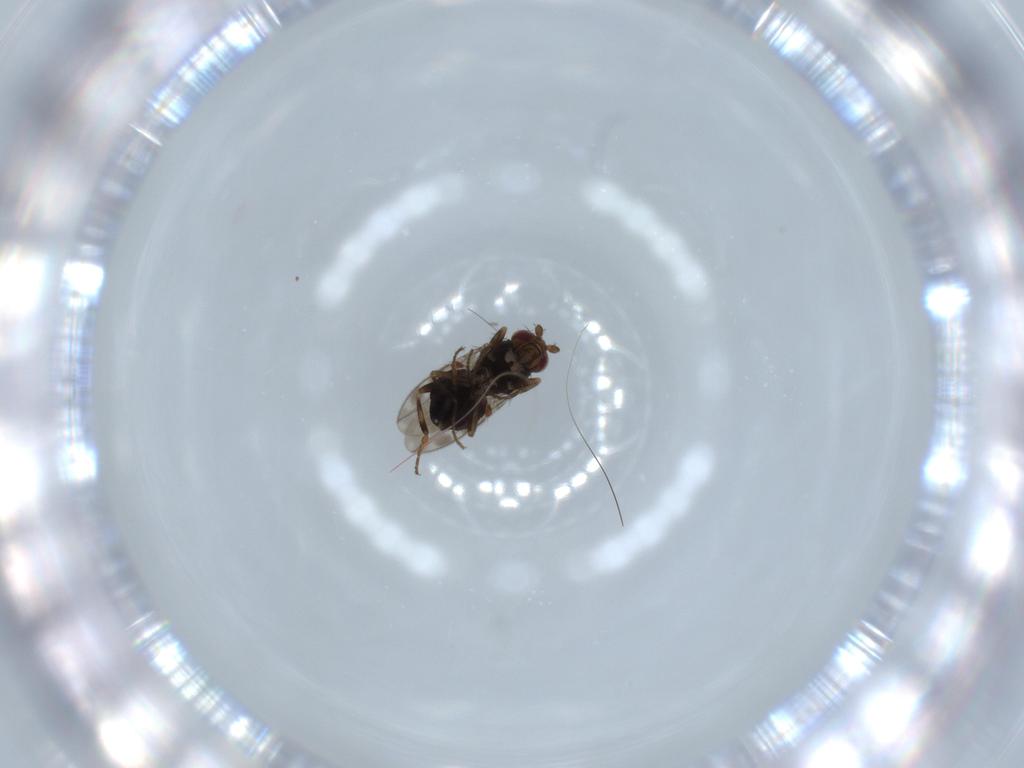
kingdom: Animalia
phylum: Arthropoda
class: Insecta
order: Diptera
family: Sphaeroceridae
